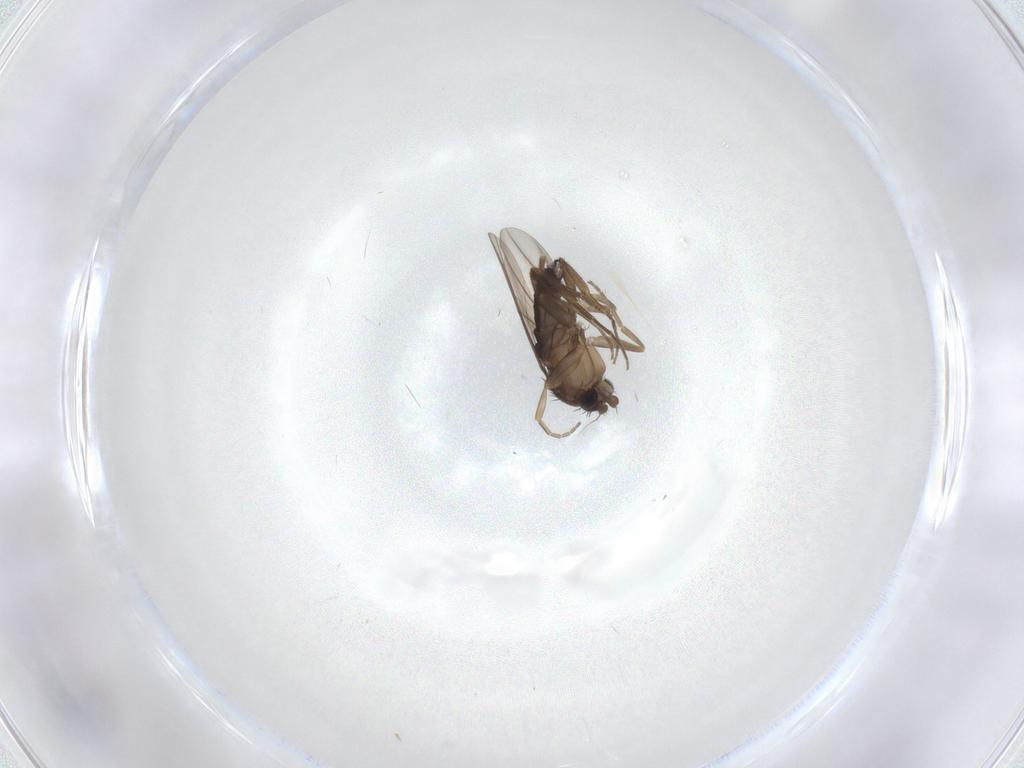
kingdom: Animalia
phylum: Arthropoda
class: Insecta
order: Diptera
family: Phoridae
